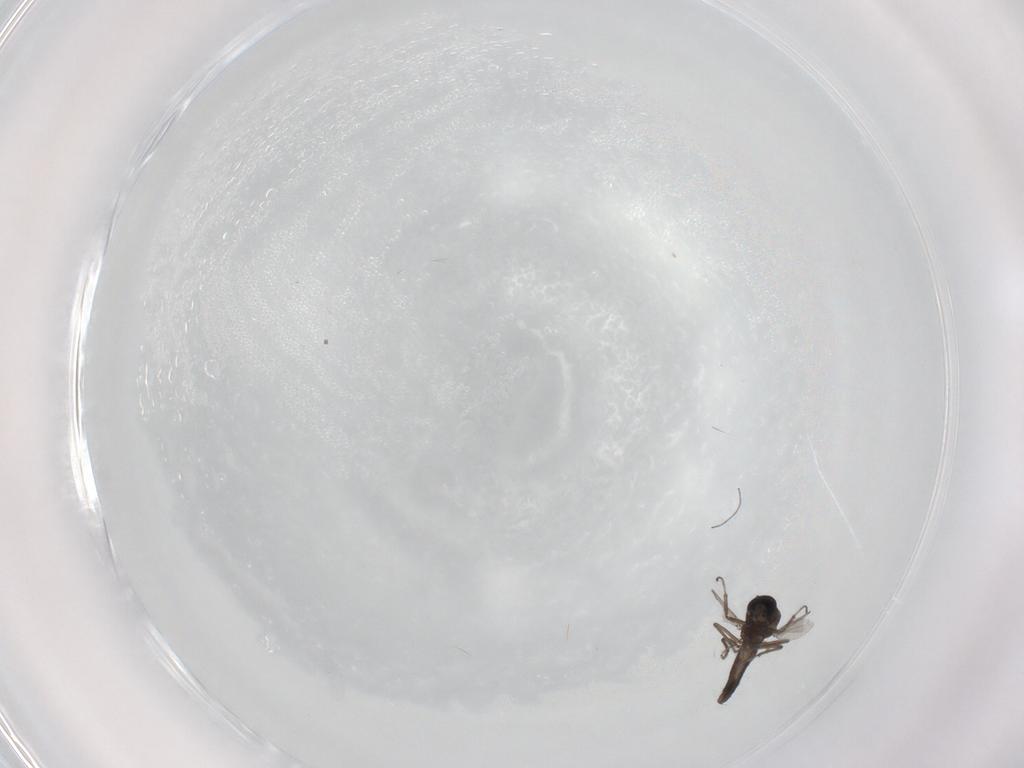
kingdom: Animalia
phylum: Arthropoda
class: Insecta
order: Diptera
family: Ceratopogonidae
